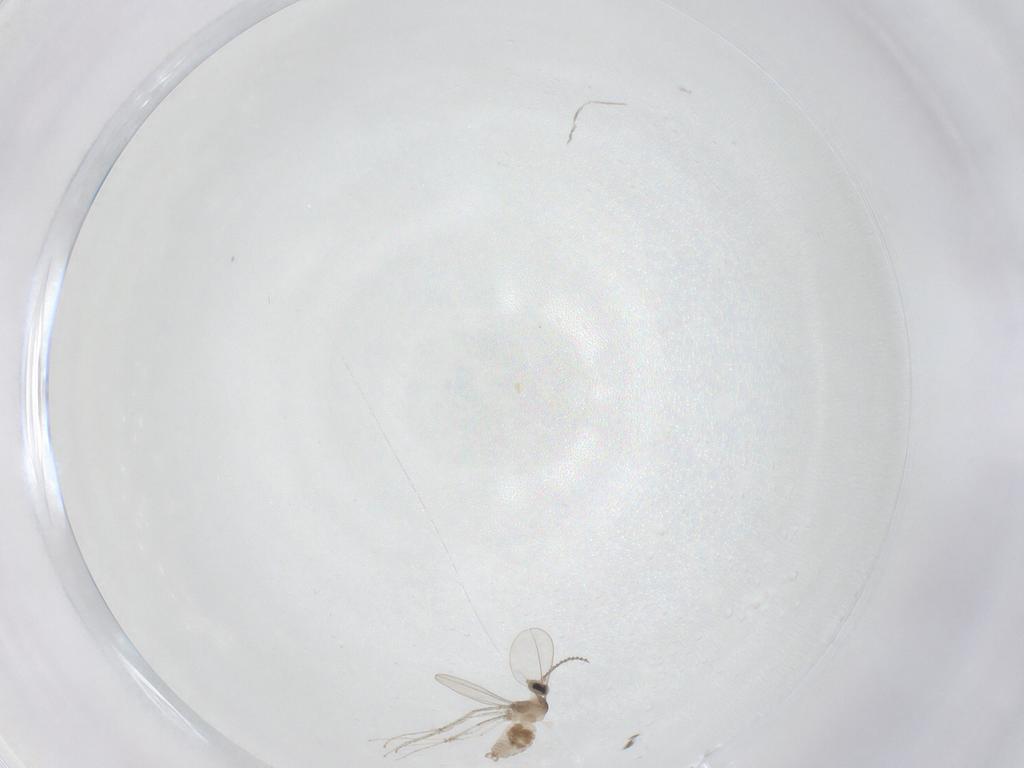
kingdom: Animalia
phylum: Arthropoda
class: Insecta
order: Diptera
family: Cecidomyiidae
